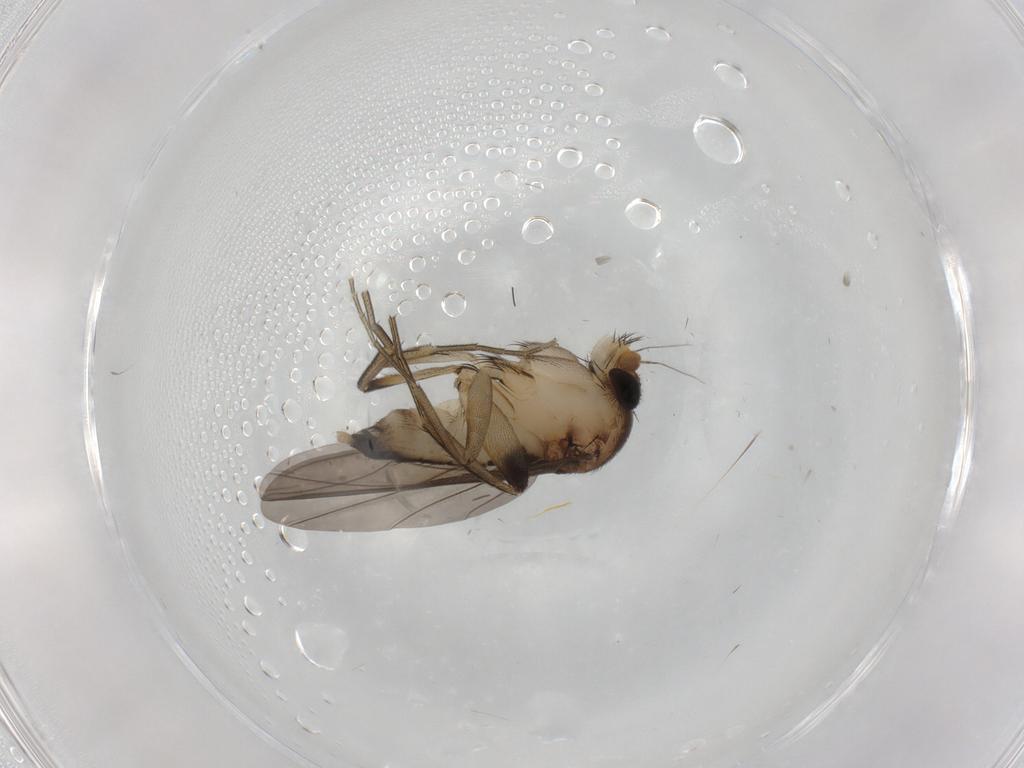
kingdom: Animalia
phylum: Arthropoda
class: Insecta
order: Diptera
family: Phoridae
